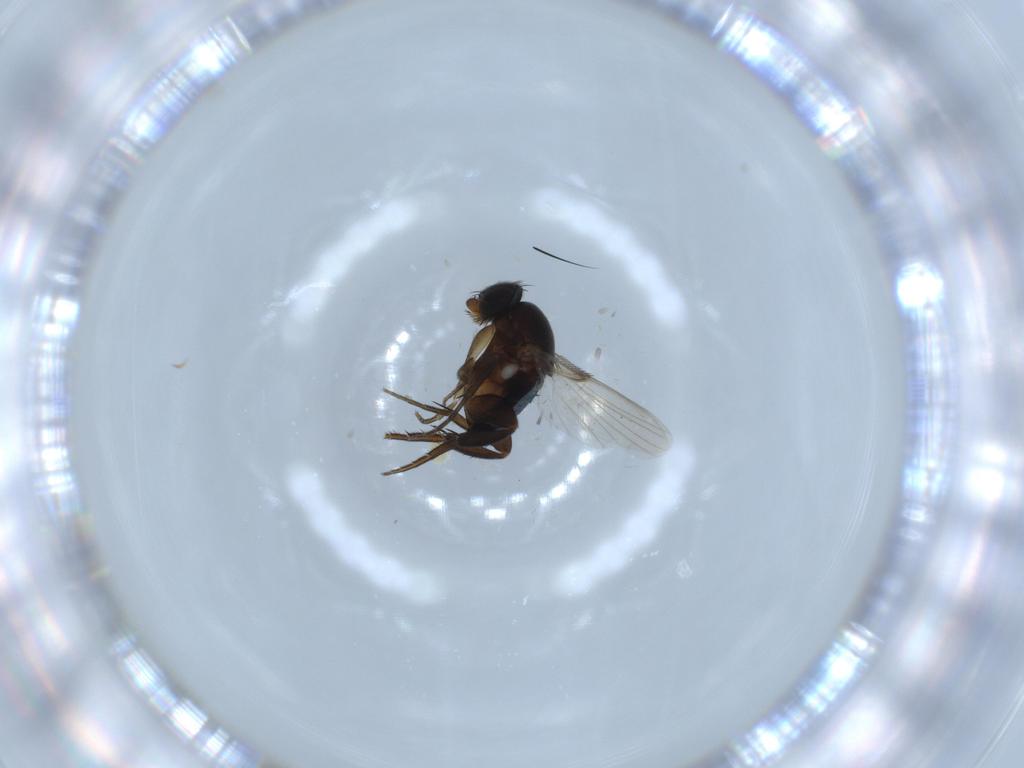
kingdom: Animalia
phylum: Arthropoda
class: Insecta
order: Diptera
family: Phoridae
